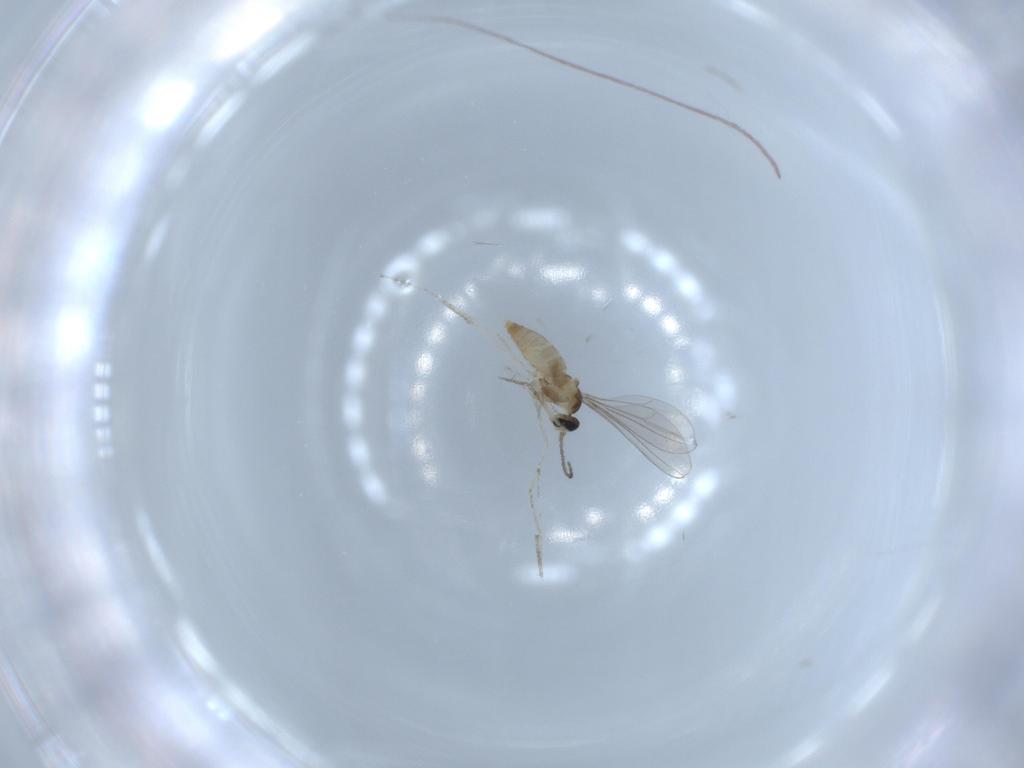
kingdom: Animalia
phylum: Arthropoda
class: Insecta
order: Diptera
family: Cecidomyiidae
